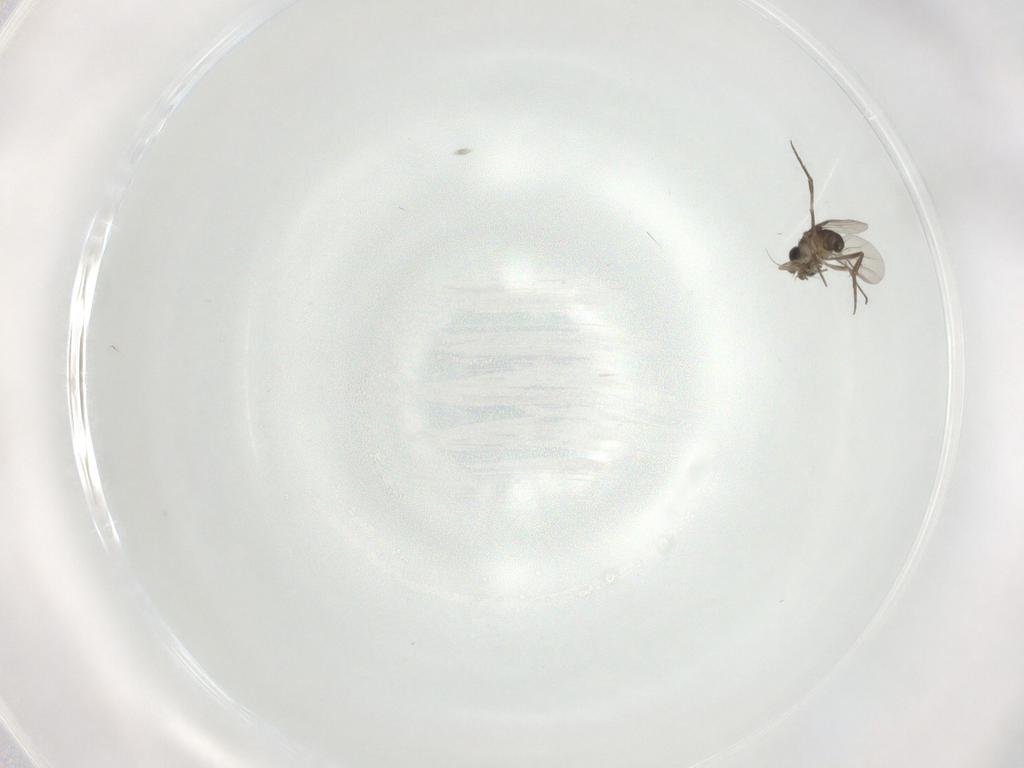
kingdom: Animalia
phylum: Arthropoda
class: Insecta
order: Diptera
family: Phoridae
